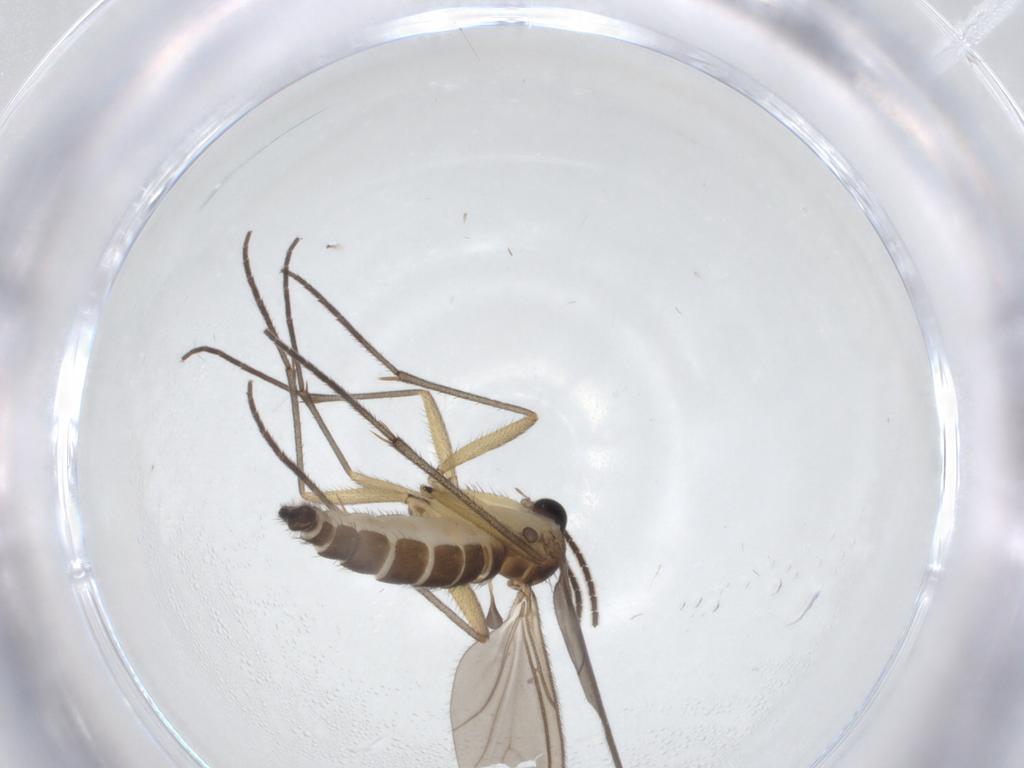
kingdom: Animalia
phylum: Arthropoda
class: Insecta
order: Diptera
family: Sciaridae
